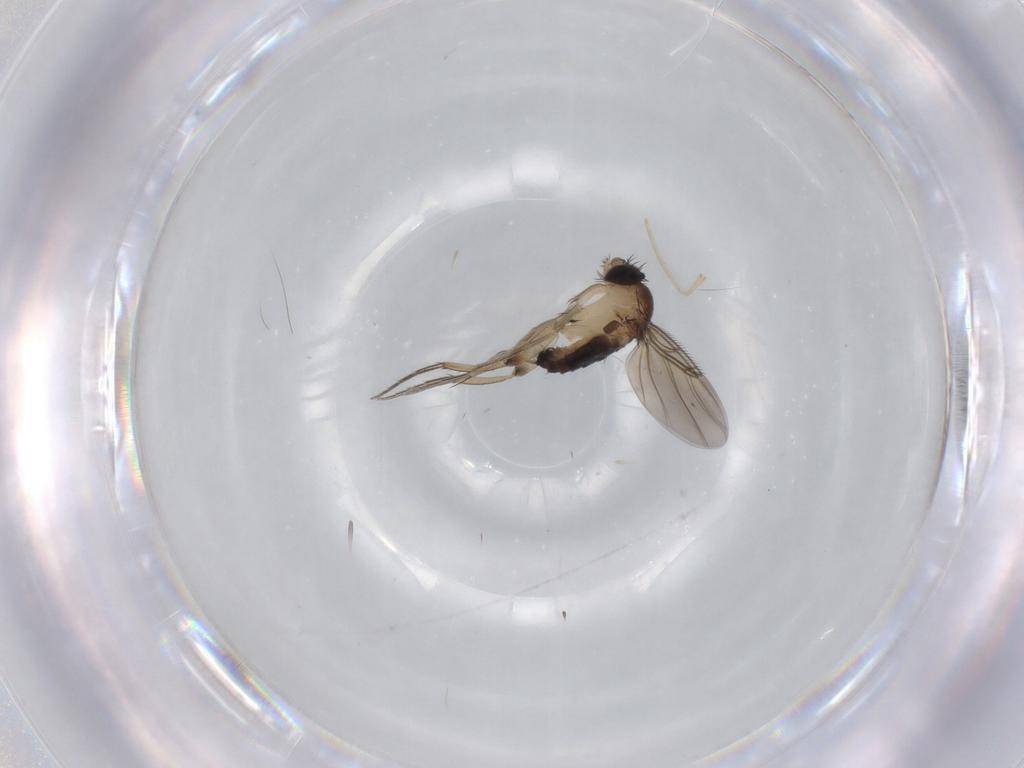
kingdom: Animalia
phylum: Arthropoda
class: Insecta
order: Diptera
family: Phoridae
